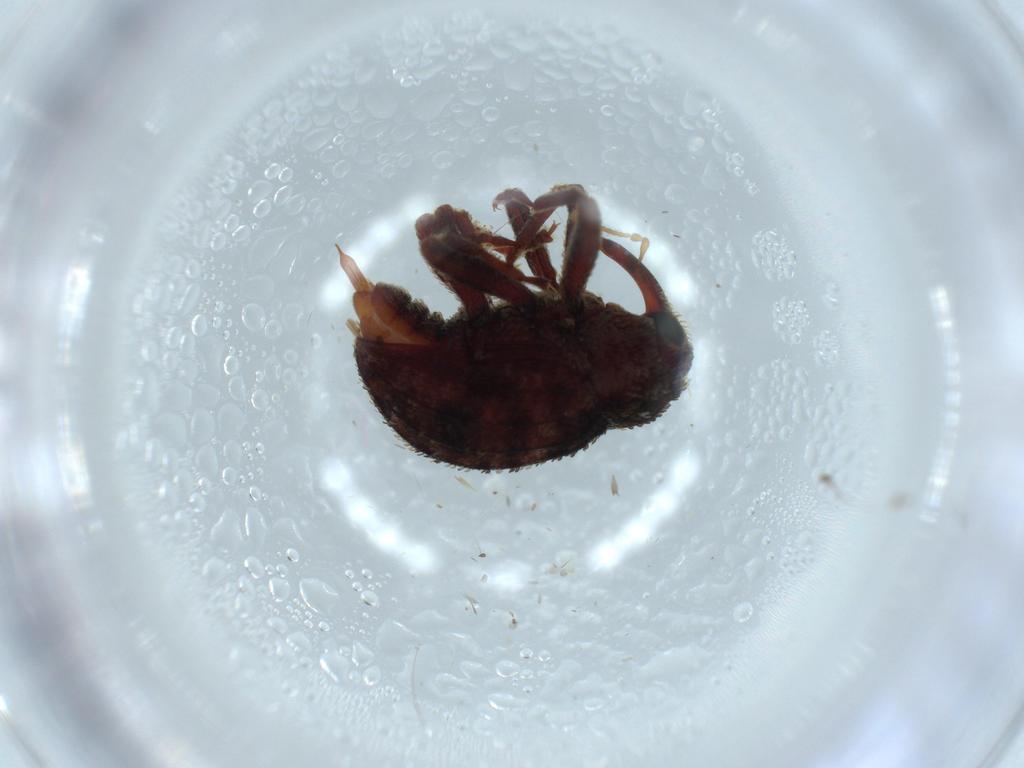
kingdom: Animalia
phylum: Arthropoda
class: Insecta
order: Coleoptera
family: Curculionidae
